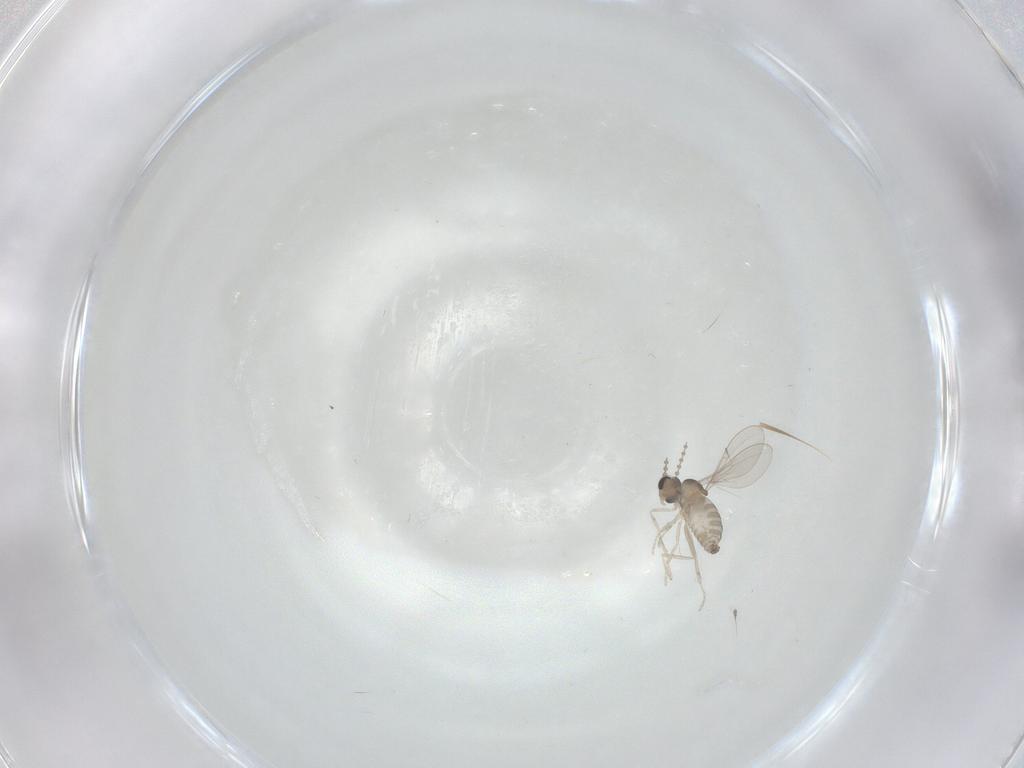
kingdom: Animalia
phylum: Arthropoda
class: Insecta
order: Diptera
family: Cecidomyiidae
